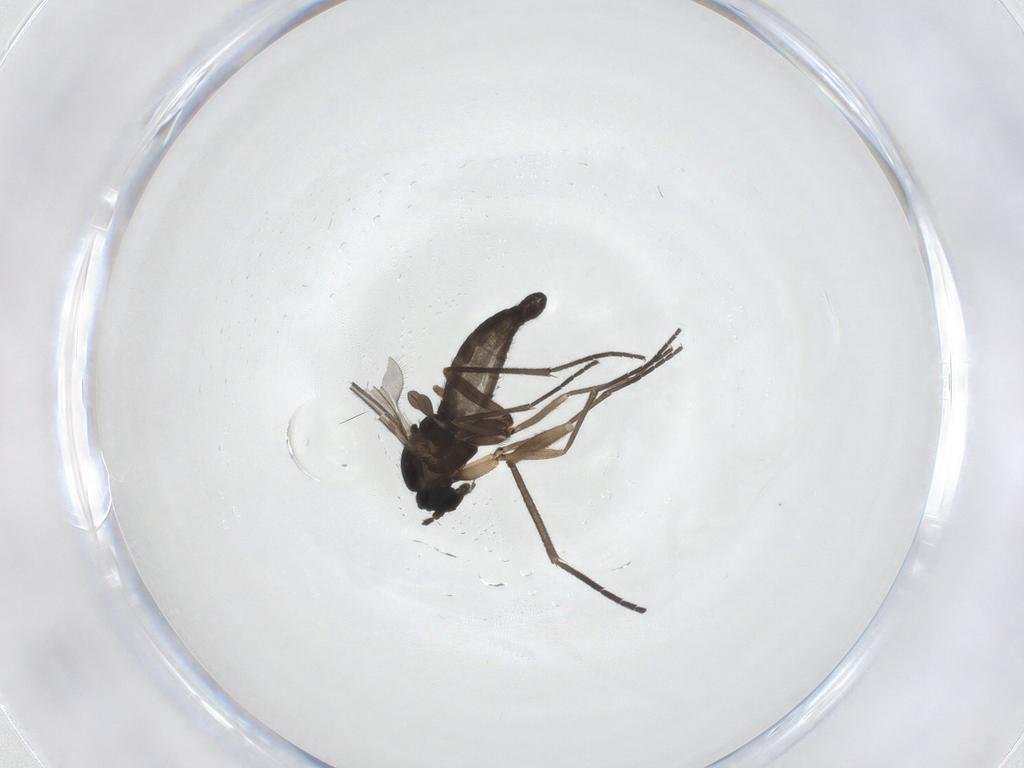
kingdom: Animalia
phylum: Arthropoda
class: Insecta
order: Diptera
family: Sciaridae
